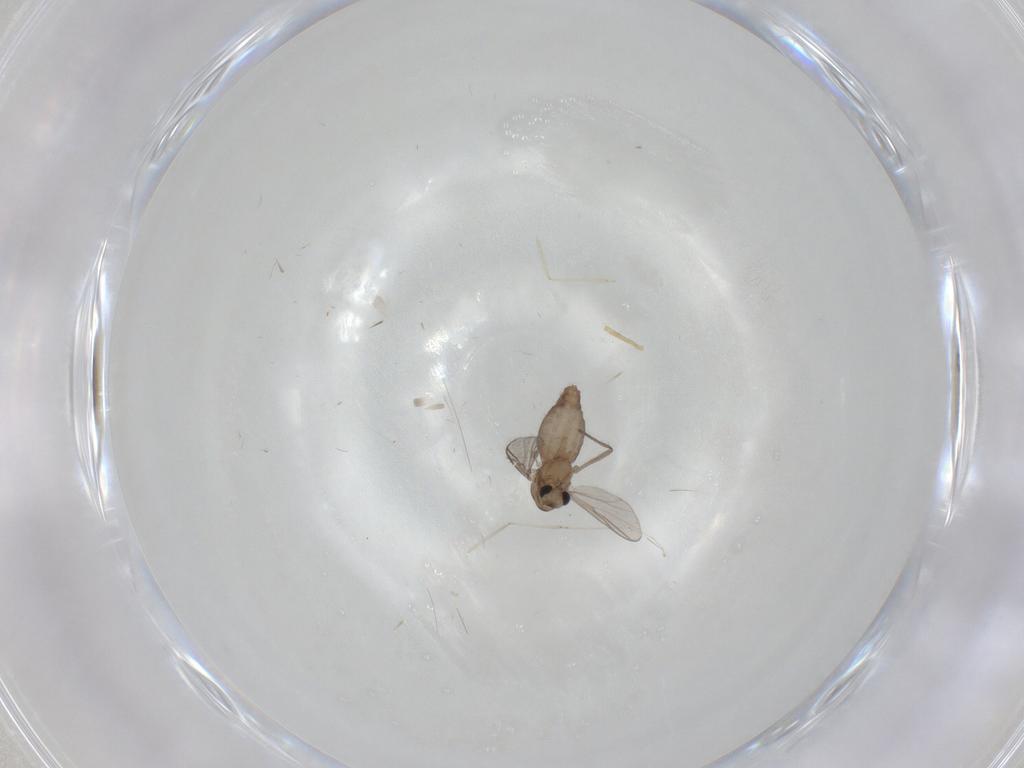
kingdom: Animalia
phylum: Arthropoda
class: Insecta
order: Diptera
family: Chironomidae
